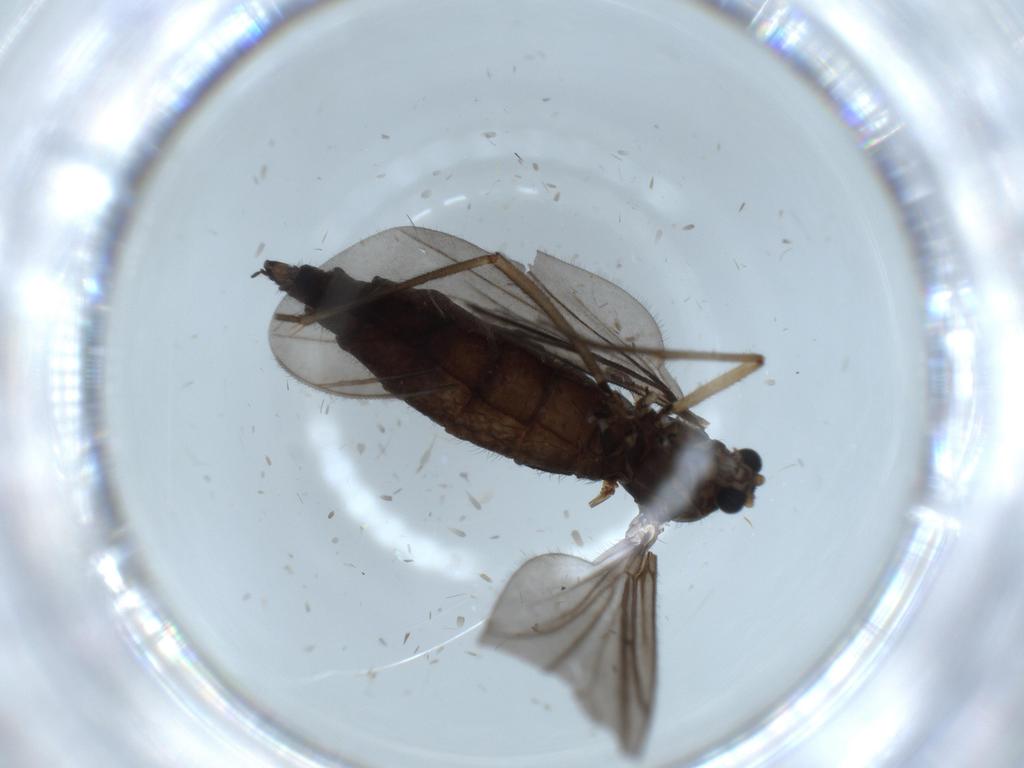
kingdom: Animalia
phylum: Arthropoda
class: Insecta
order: Diptera
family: Sciaridae
